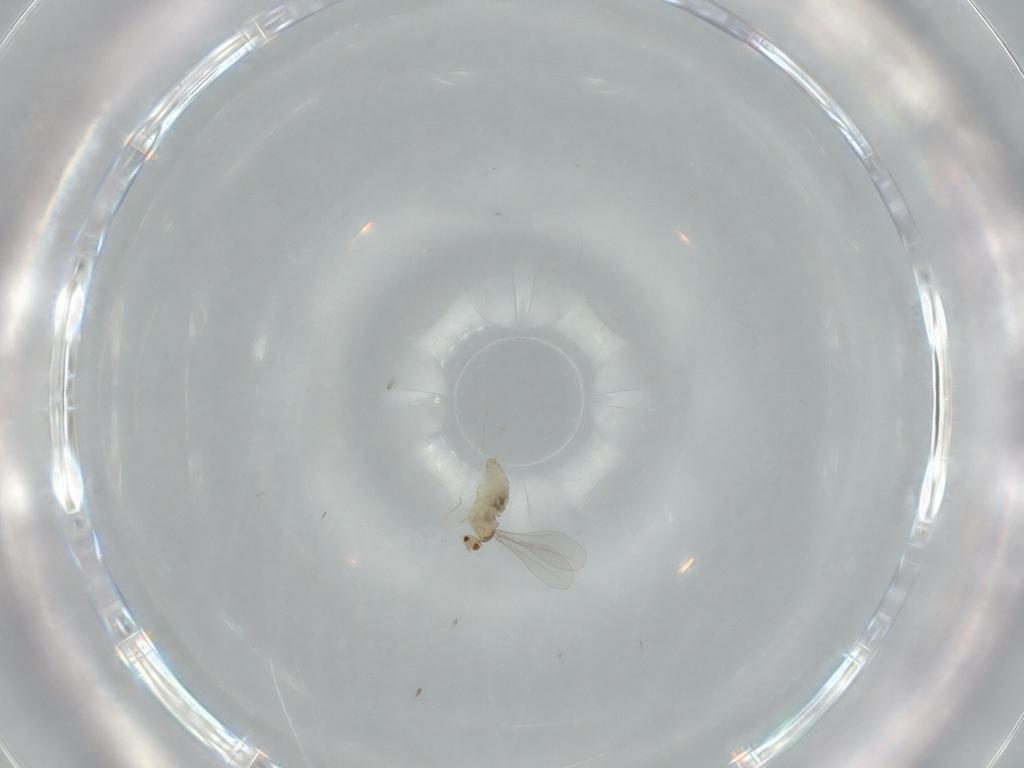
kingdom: Animalia
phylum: Arthropoda
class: Insecta
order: Diptera
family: Cecidomyiidae
